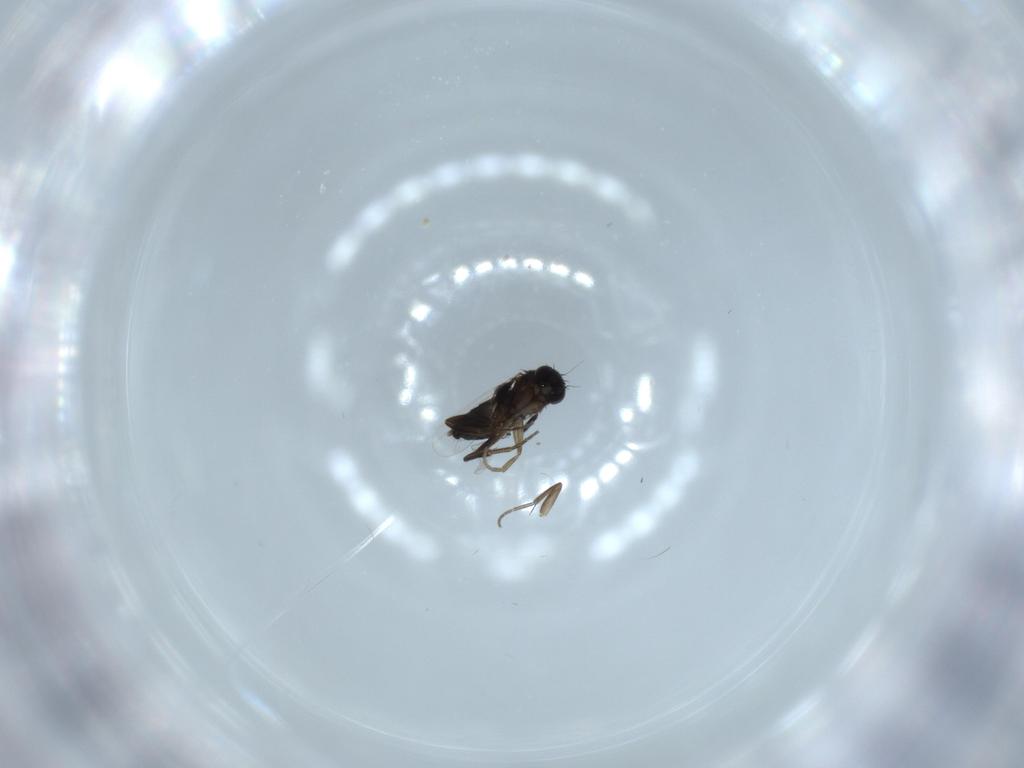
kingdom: Animalia
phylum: Arthropoda
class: Insecta
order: Diptera
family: Phoridae
